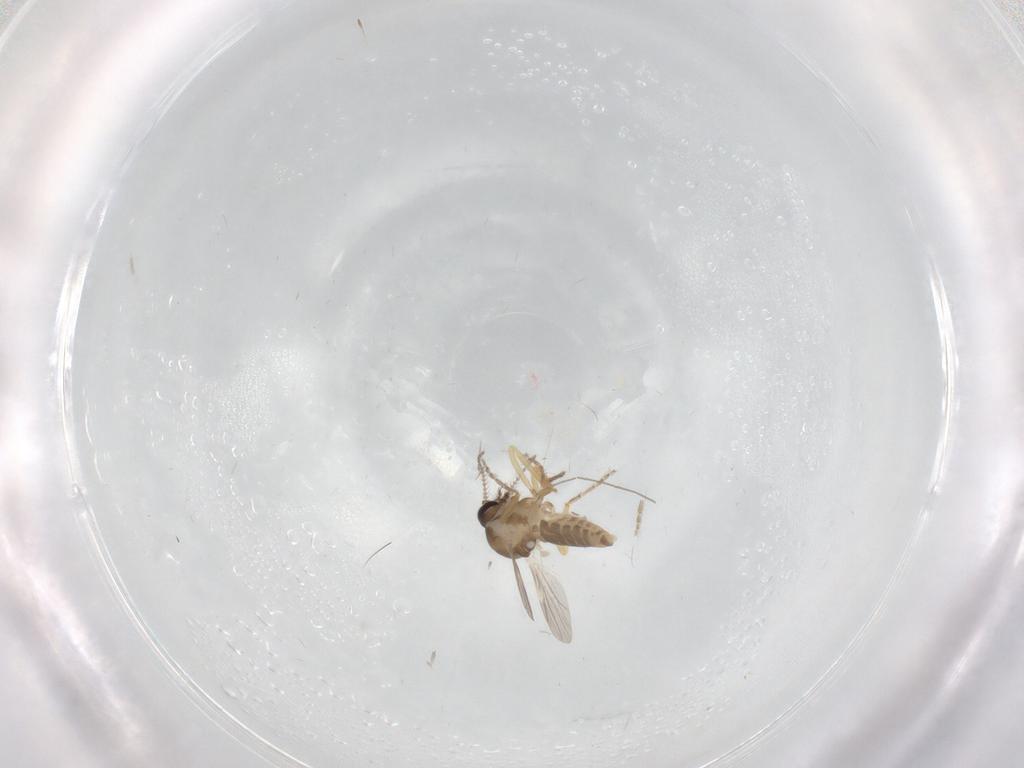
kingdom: Animalia
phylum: Arthropoda
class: Insecta
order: Diptera
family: Ceratopogonidae
